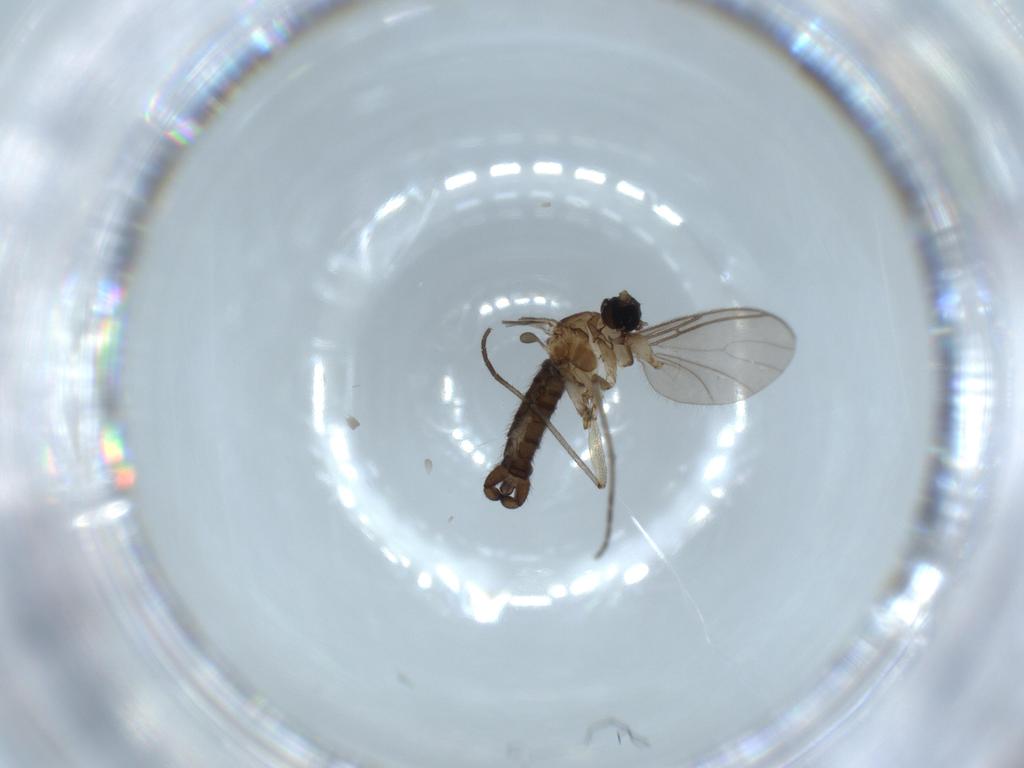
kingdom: Animalia
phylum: Arthropoda
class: Insecta
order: Diptera
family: Sciaridae
